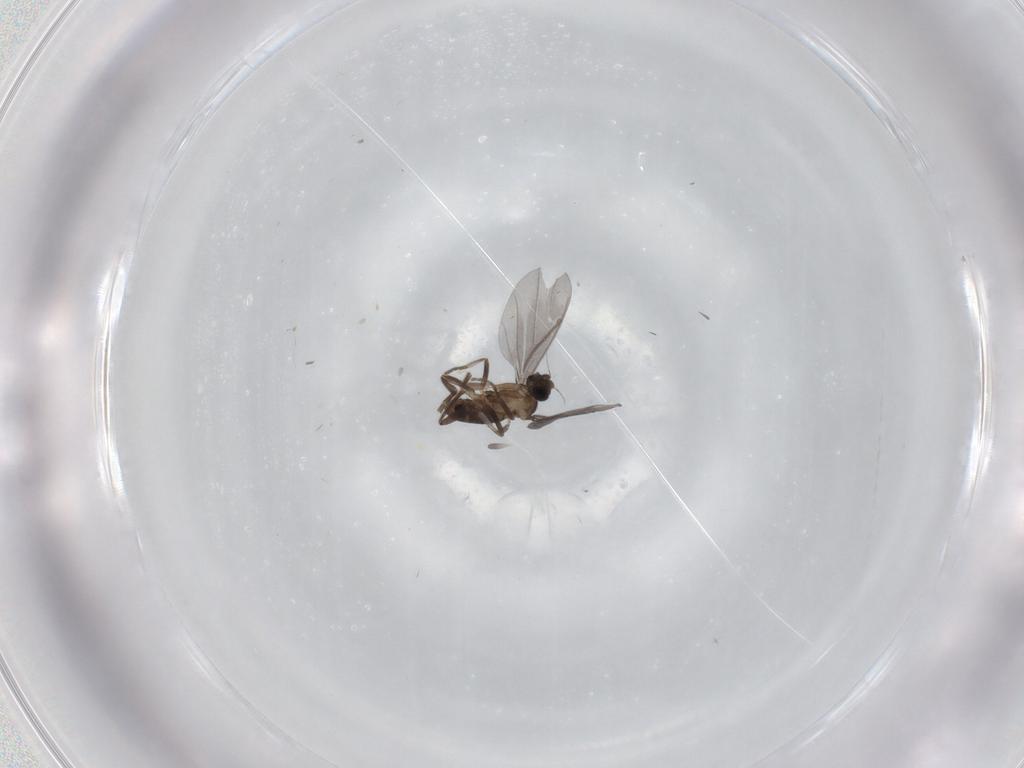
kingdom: Animalia
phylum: Arthropoda
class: Insecta
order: Diptera
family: Phoridae
